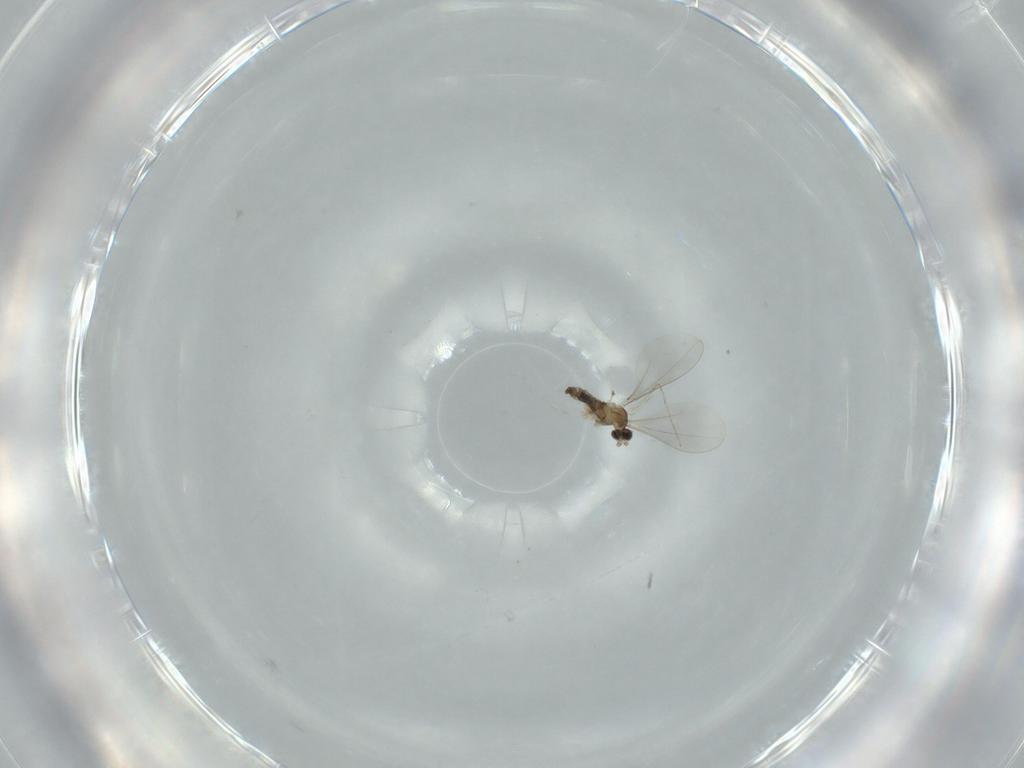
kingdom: Animalia
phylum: Arthropoda
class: Insecta
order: Diptera
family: Cecidomyiidae
